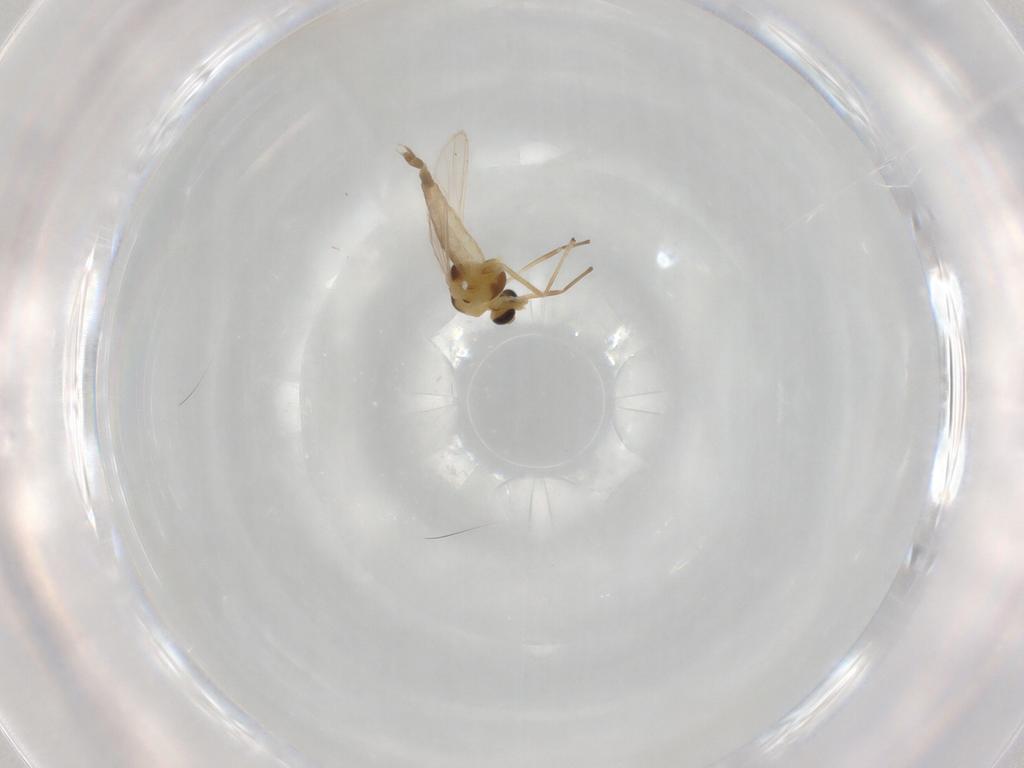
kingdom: Animalia
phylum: Arthropoda
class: Insecta
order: Diptera
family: Chironomidae
